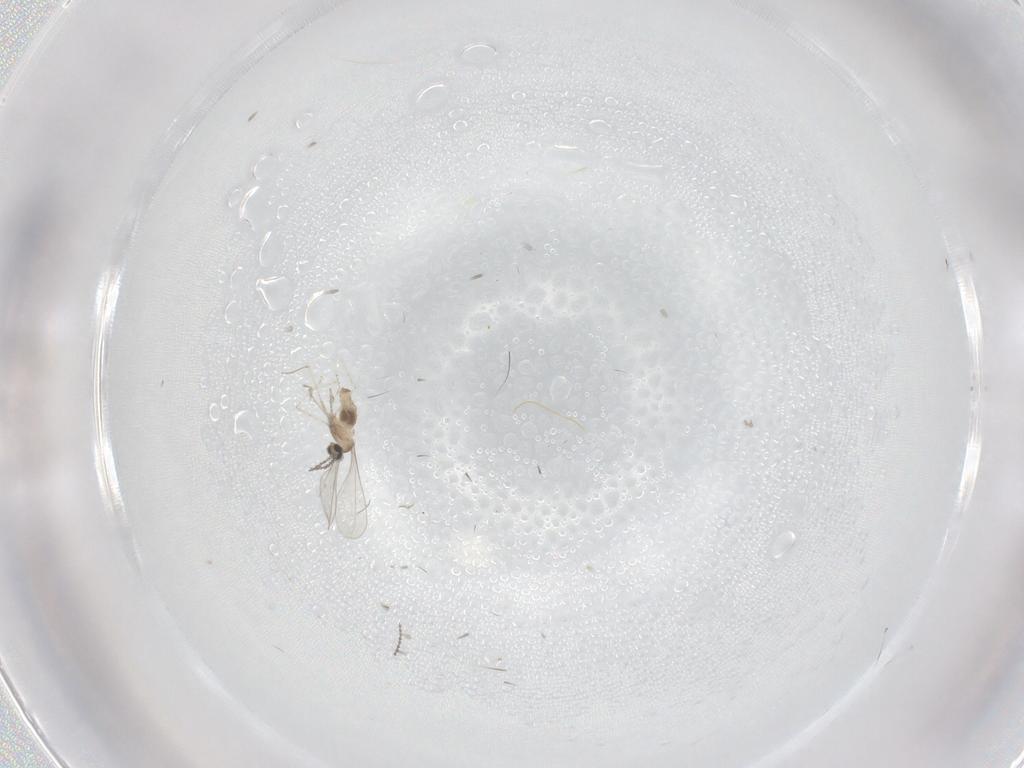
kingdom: Animalia
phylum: Arthropoda
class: Insecta
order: Diptera
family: Cecidomyiidae
